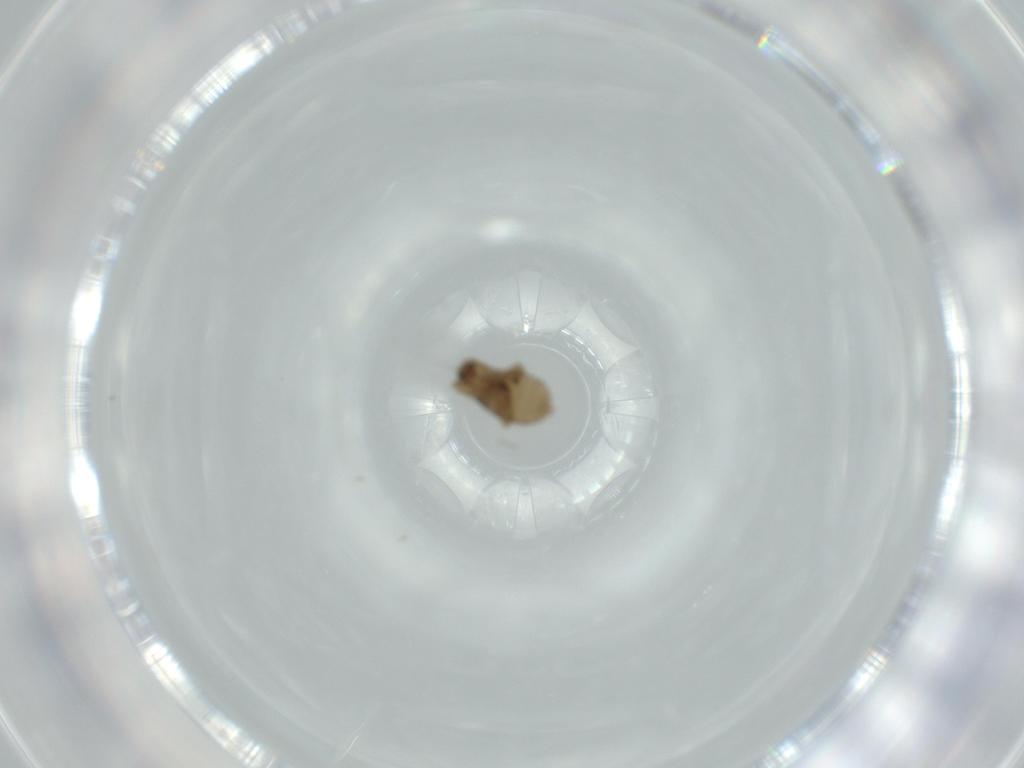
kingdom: Animalia
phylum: Arthropoda
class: Insecta
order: Diptera
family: Phoridae
